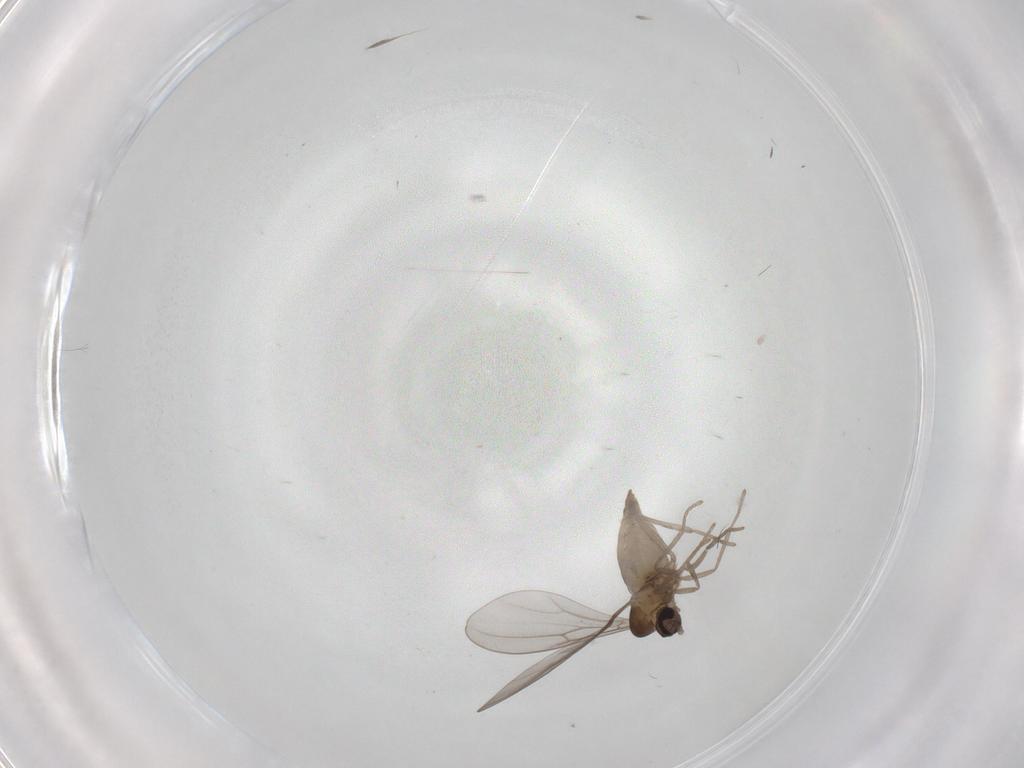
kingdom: Animalia
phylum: Arthropoda
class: Insecta
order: Diptera
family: Cecidomyiidae
